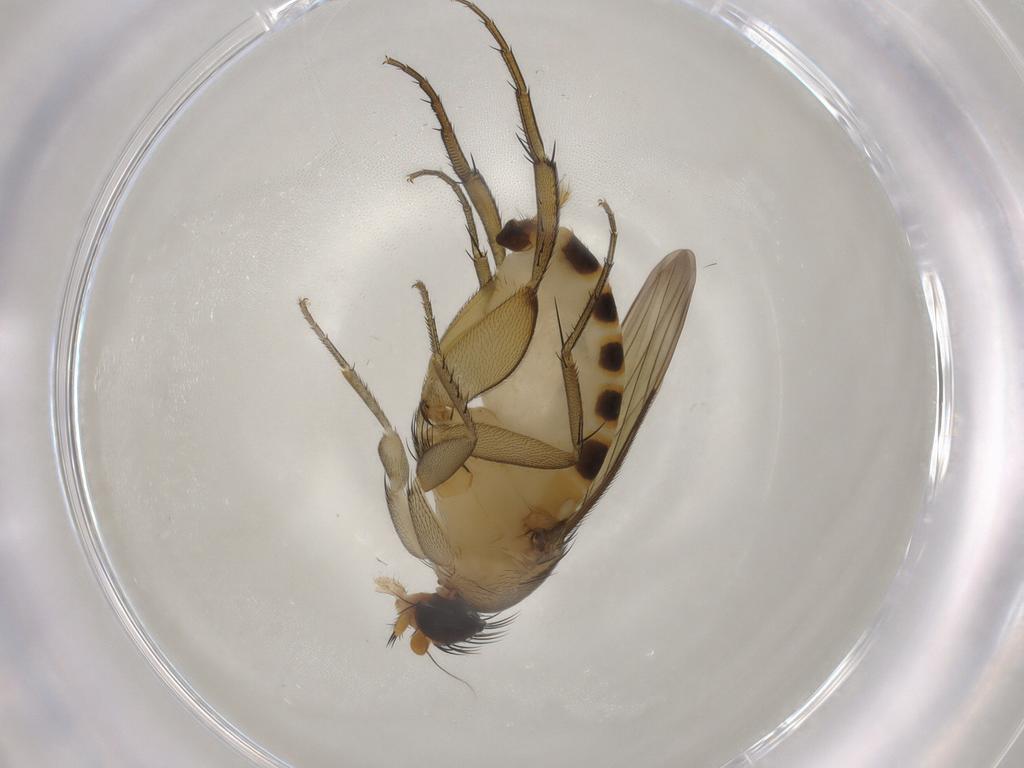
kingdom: Animalia
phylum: Arthropoda
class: Insecta
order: Diptera
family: Phoridae
